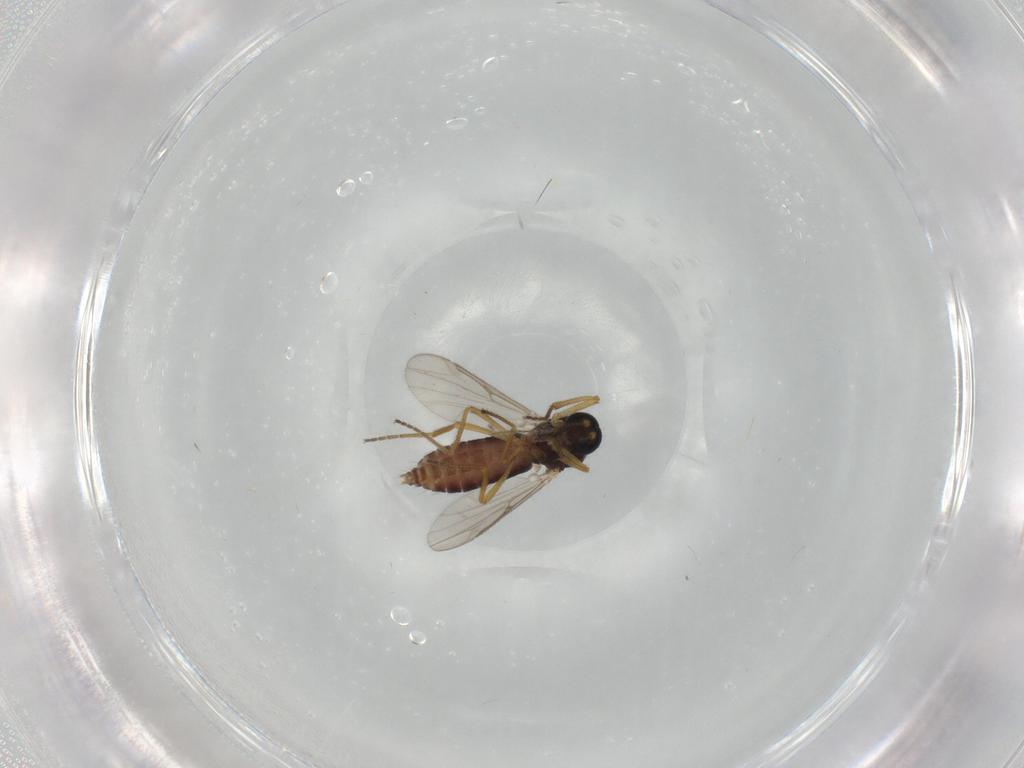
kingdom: Animalia
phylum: Arthropoda
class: Insecta
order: Diptera
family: Ceratopogonidae
